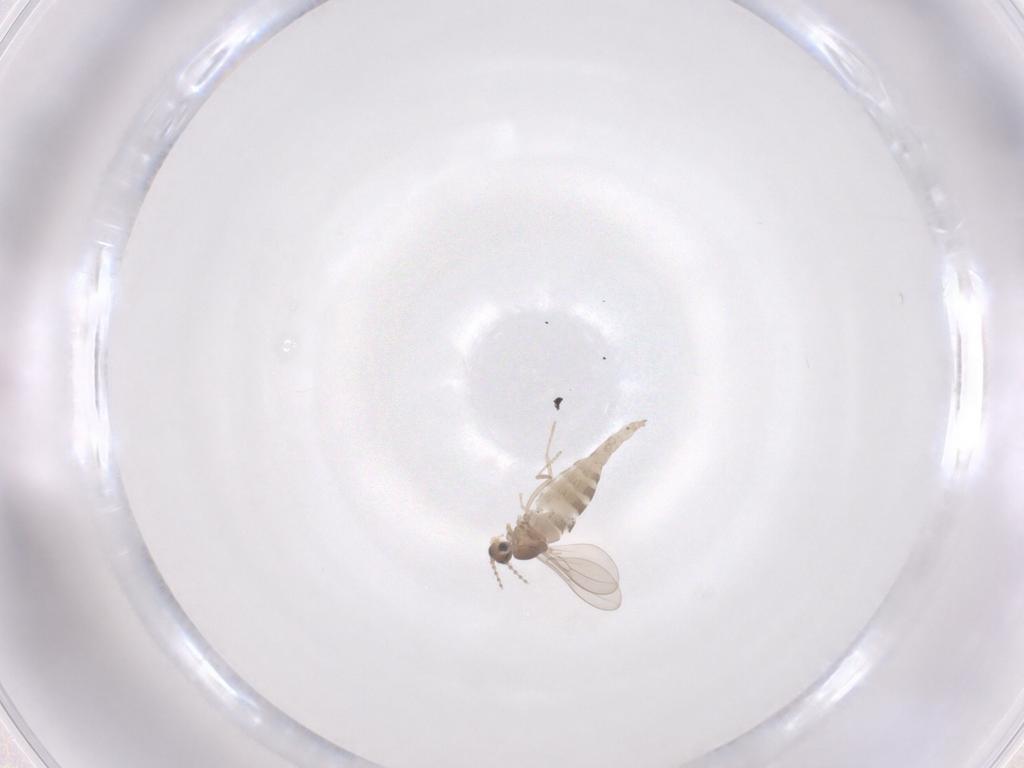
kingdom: Animalia
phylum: Arthropoda
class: Insecta
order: Diptera
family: Cecidomyiidae
